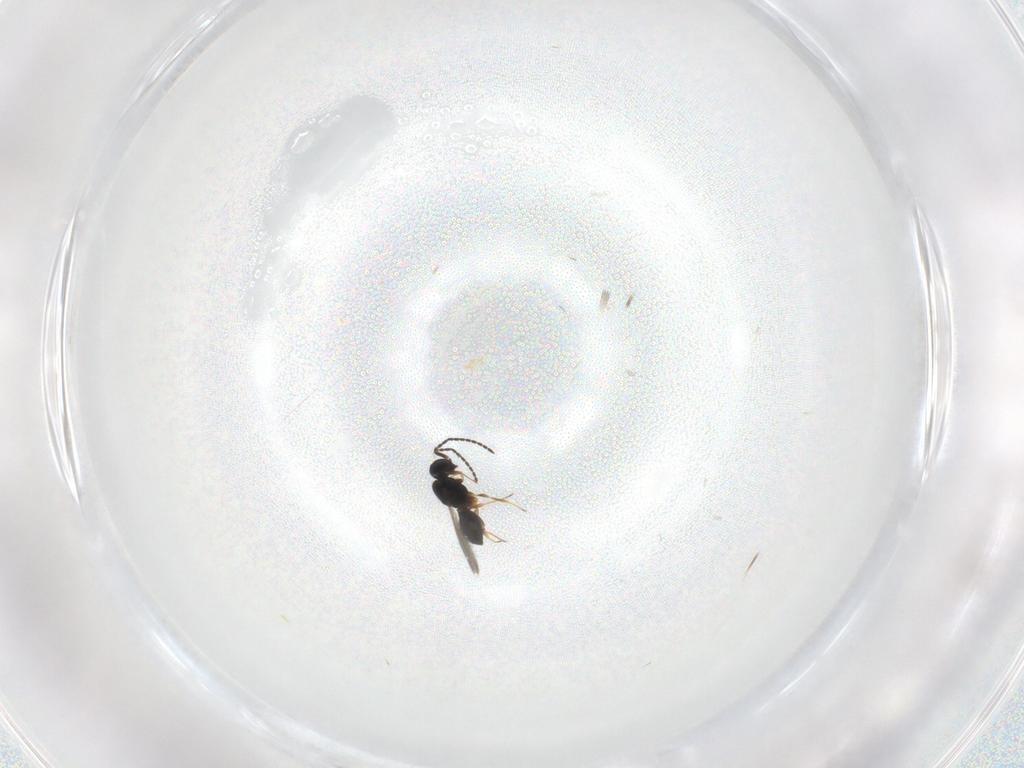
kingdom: Animalia
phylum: Arthropoda
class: Insecta
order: Hymenoptera
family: Scelionidae
